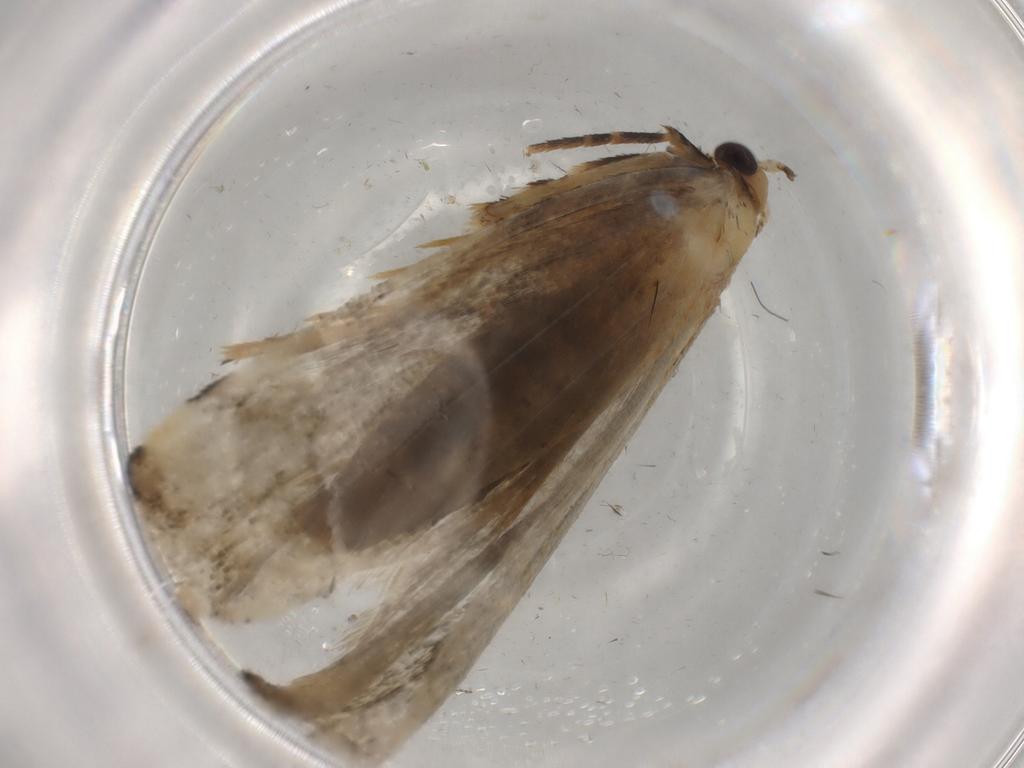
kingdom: Animalia
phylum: Arthropoda
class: Insecta
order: Lepidoptera
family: Tineidae
